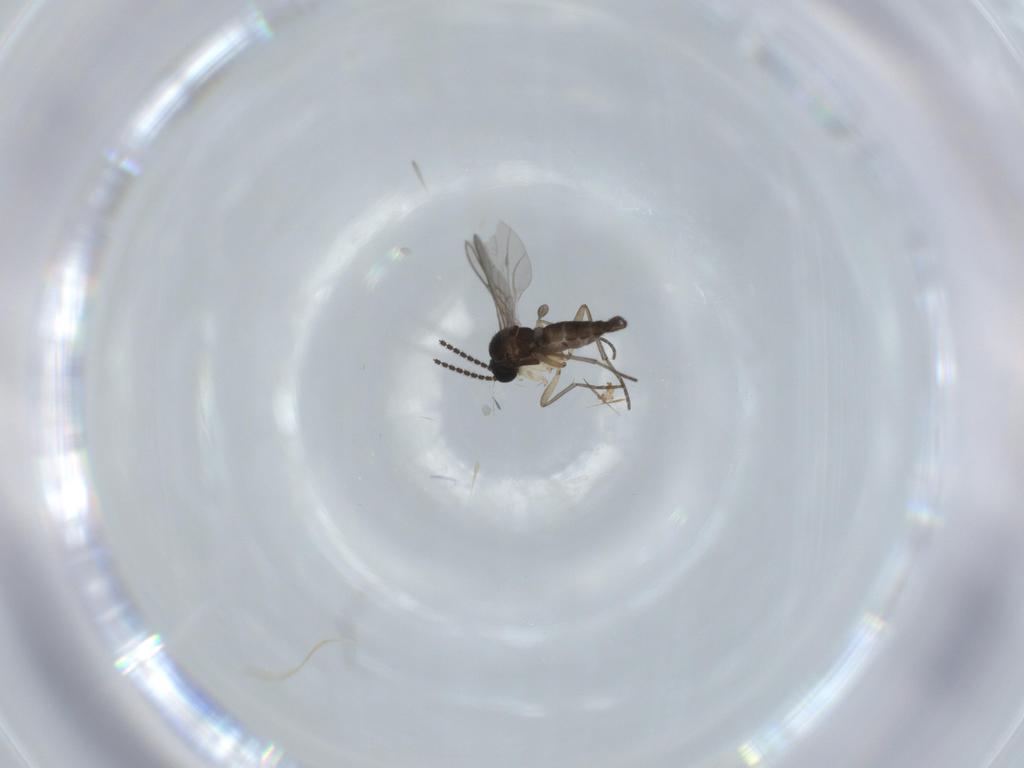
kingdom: Animalia
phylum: Arthropoda
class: Insecta
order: Diptera
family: Sciaridae
